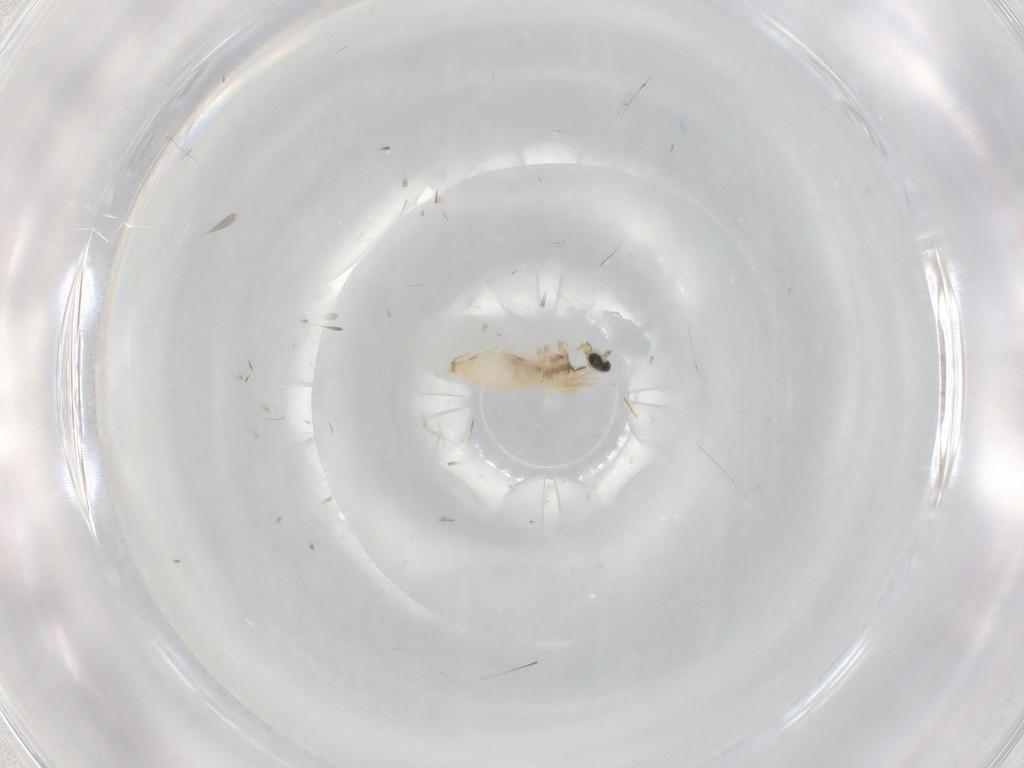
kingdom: Animalia
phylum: Arthropoda
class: Insecta
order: Diptera
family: Cecidomyiidae
